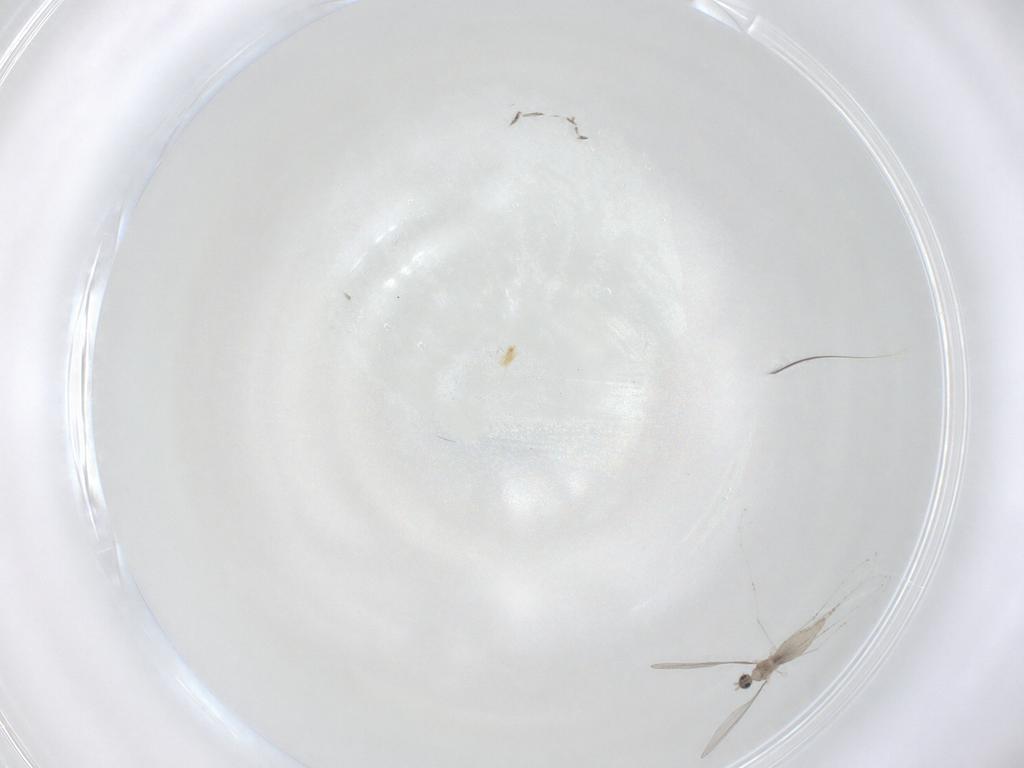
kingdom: Animalia
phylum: Arthropoda
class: Insecta
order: Diptera
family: Cecidomyiidae
